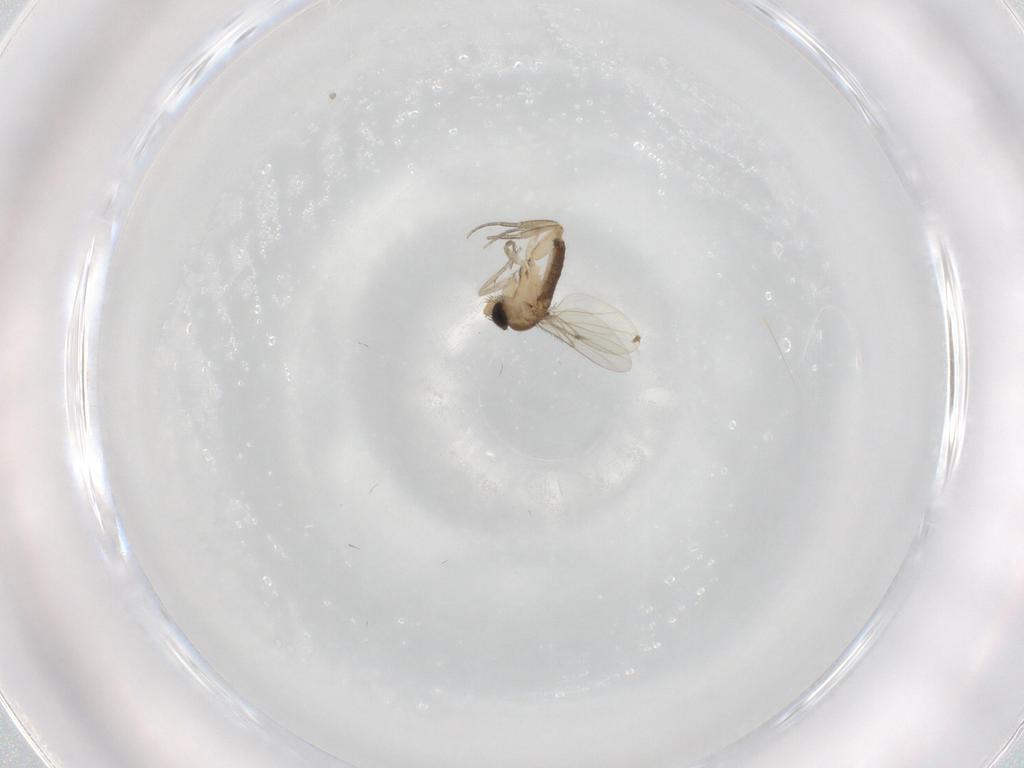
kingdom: Animalia
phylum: Arthropoda
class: Insecta
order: Diptera
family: Phoridae
